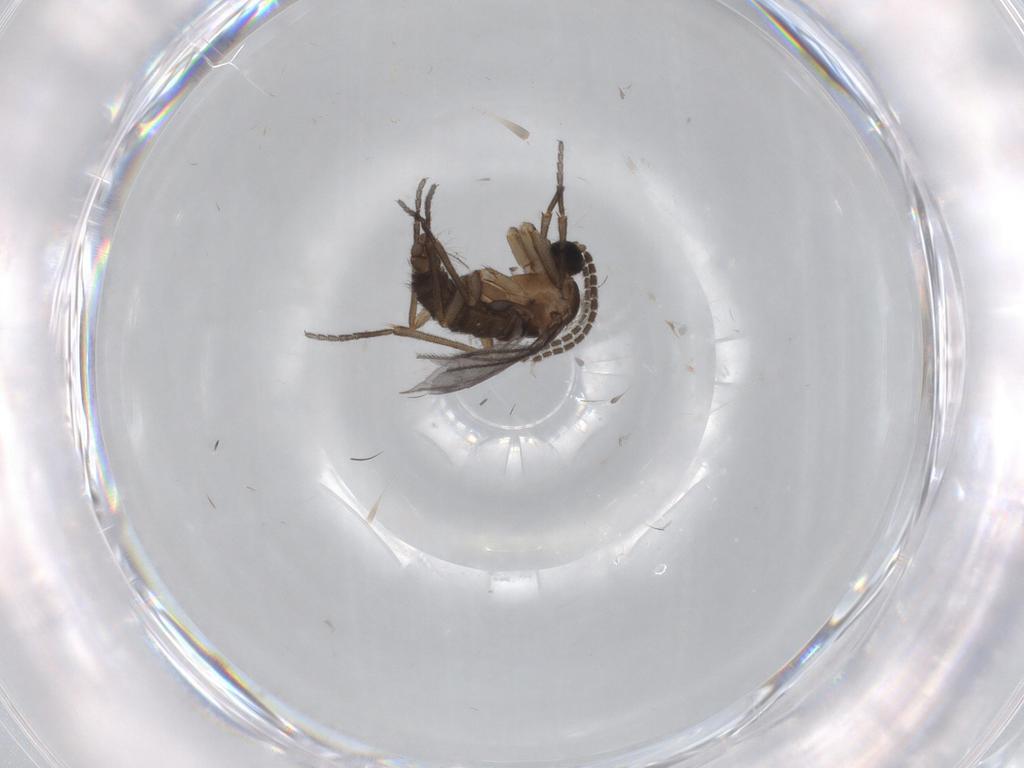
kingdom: Animalia
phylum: Arthropoda
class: Insecta
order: Diptera
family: Sciaridae
